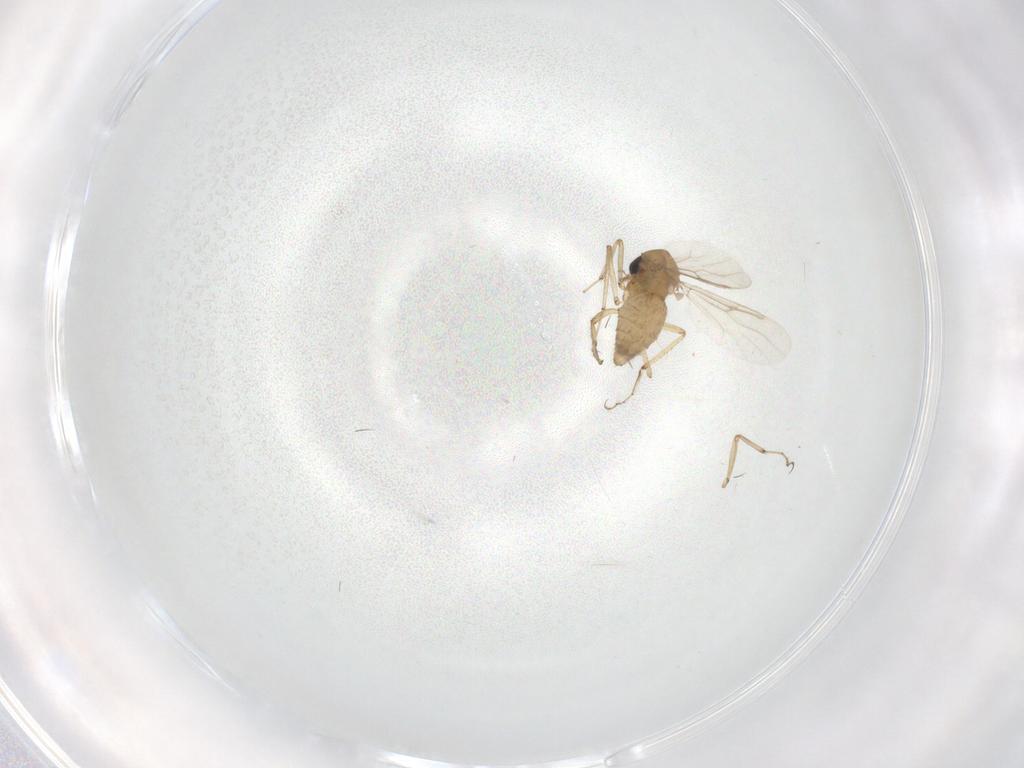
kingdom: Animalia
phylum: Arthropoda
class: Insecta
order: Diptera
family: Ceratopogonidae
